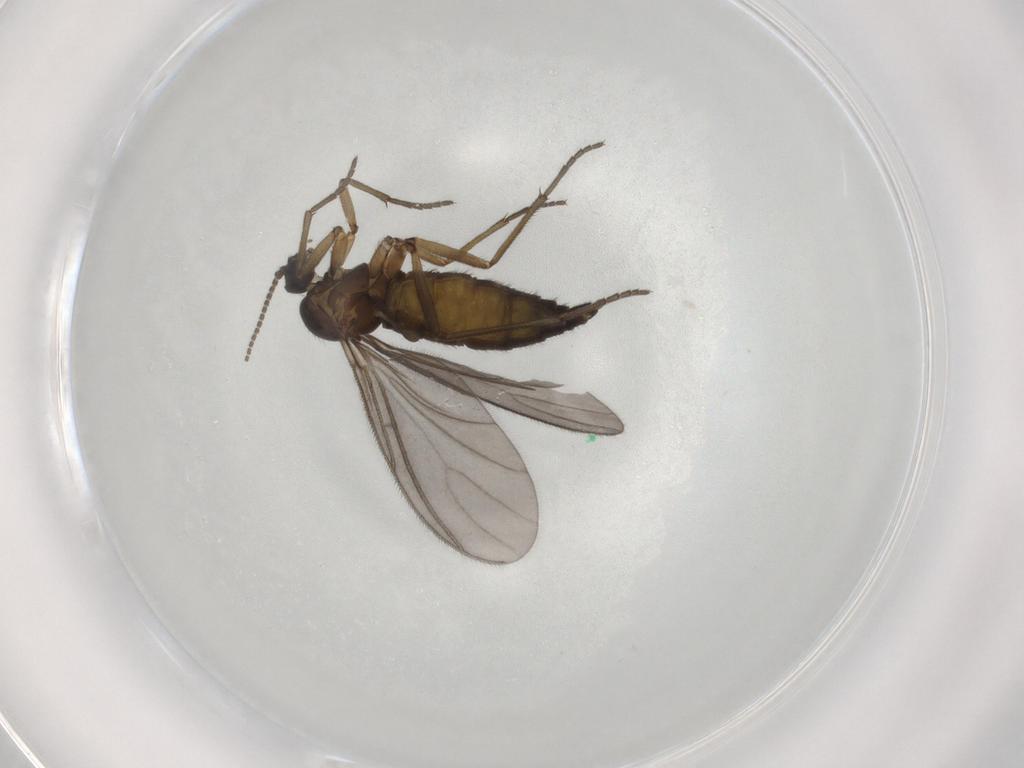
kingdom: Animalia
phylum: Arthropoda
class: Insecta
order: Diptera
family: Sciaridae
